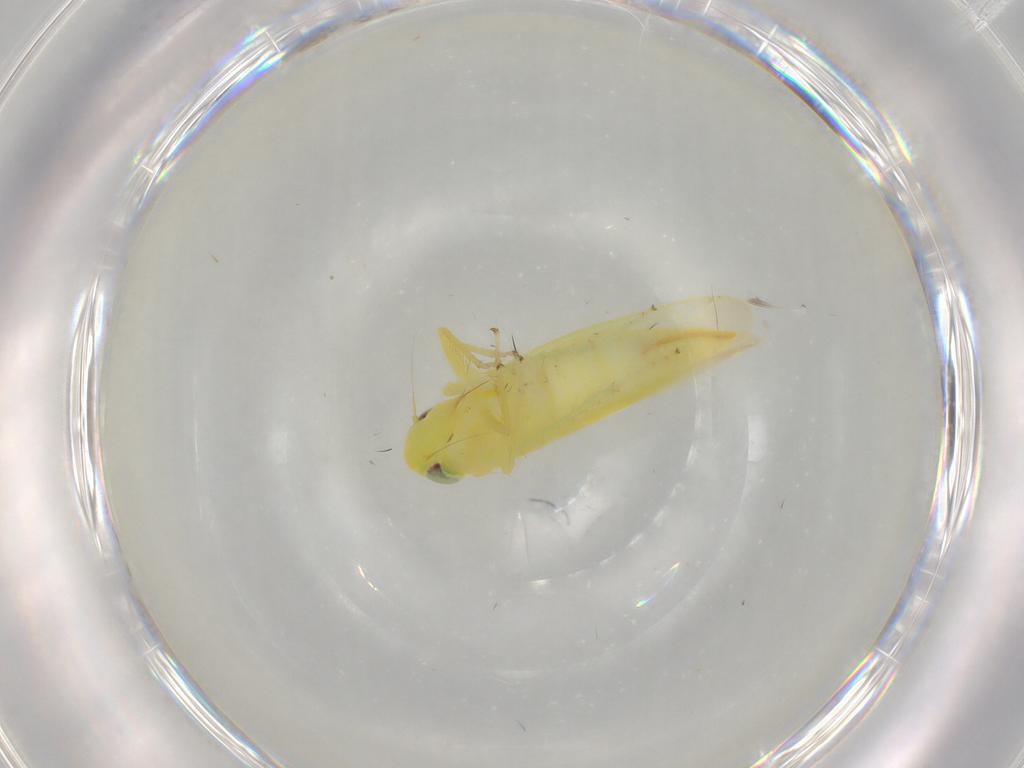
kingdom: Animalia
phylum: Arthropoda
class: Insecta
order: Hemiptera
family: Cicadellidae
